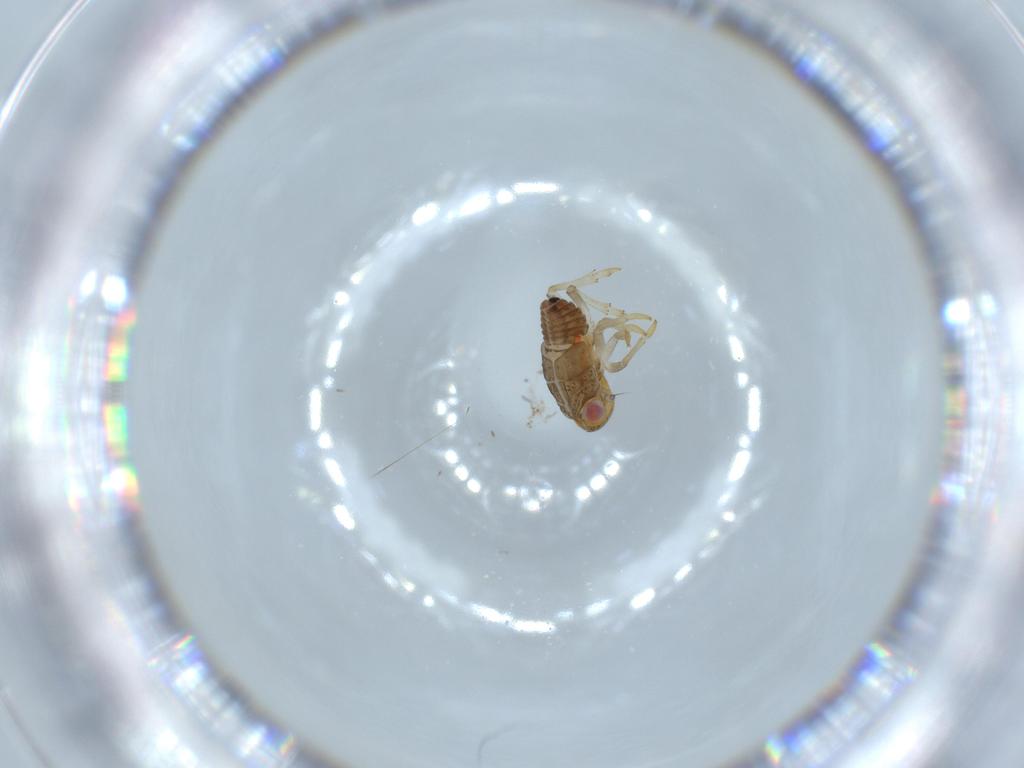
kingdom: Animalia
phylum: Arthropoda
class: Insecta
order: Hemiptera
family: Issidae
